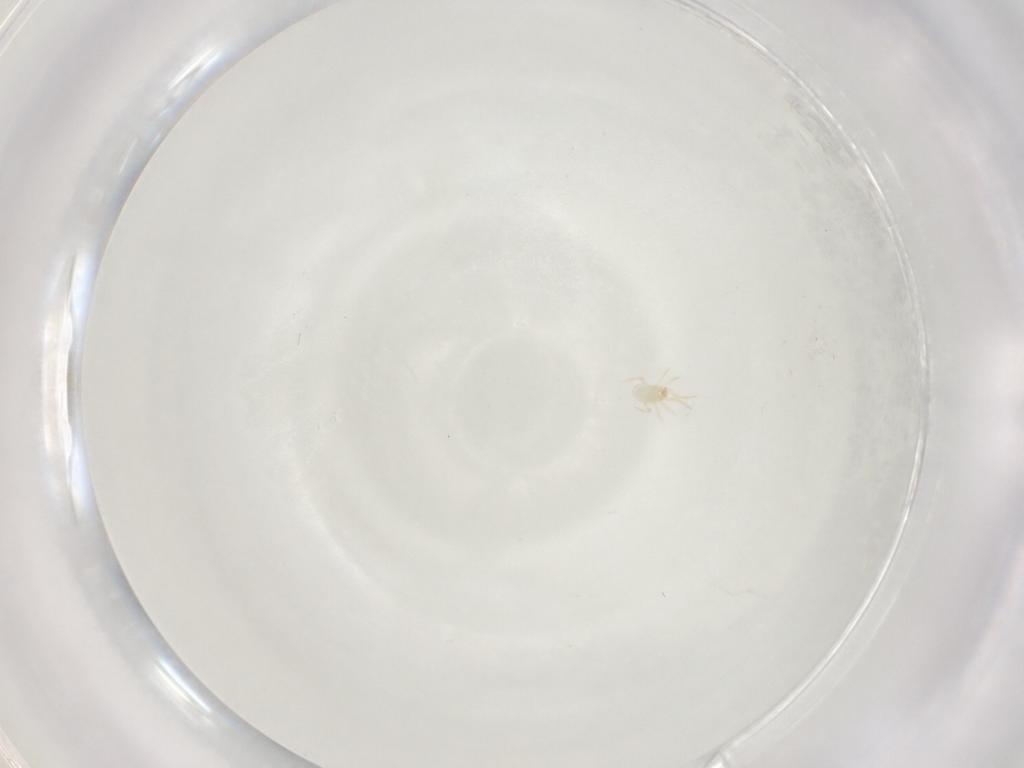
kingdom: Animalia
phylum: Arthropoda
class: Arachnida
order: Mesostigmata
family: Phytoseiidae
